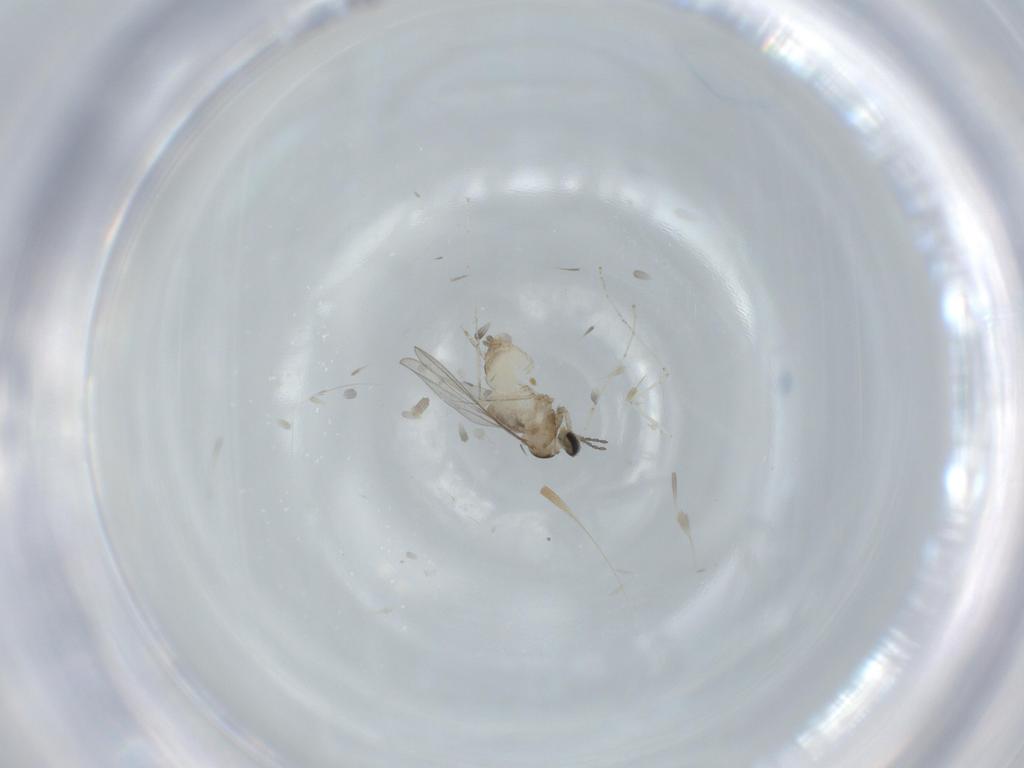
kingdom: Animalia
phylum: Arthropoda
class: Insecta
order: Diptera
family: Cecidomyiidae
